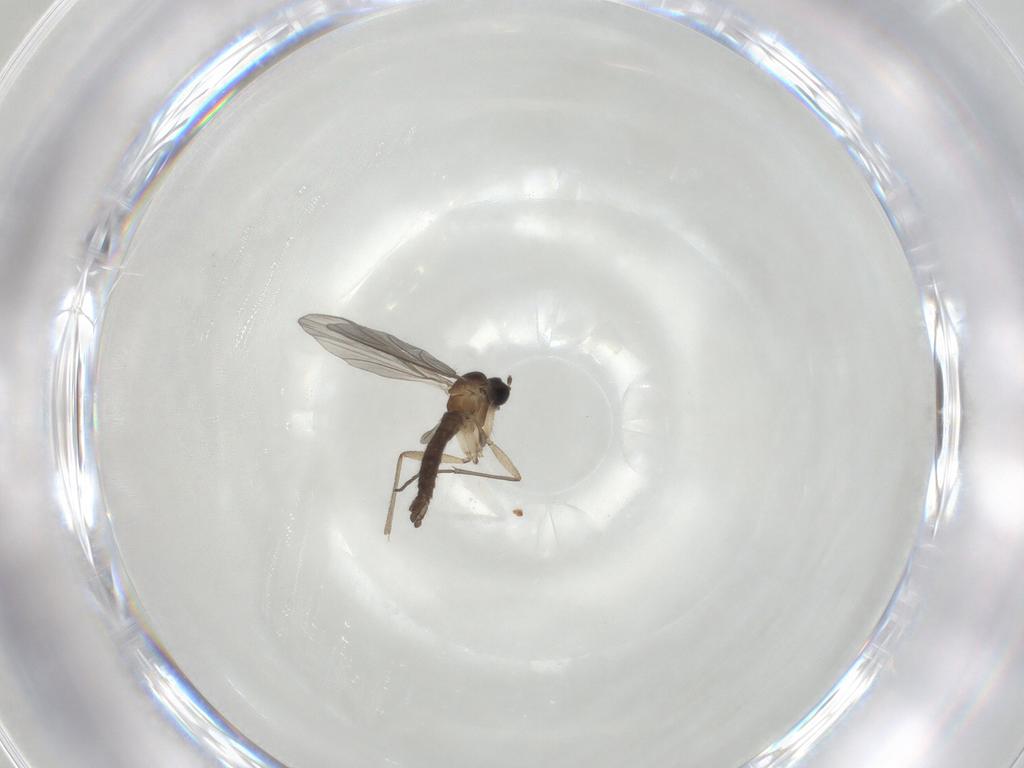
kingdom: Animalia
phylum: Arthropoda
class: Insecta
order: Diptera
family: Sciaridae
